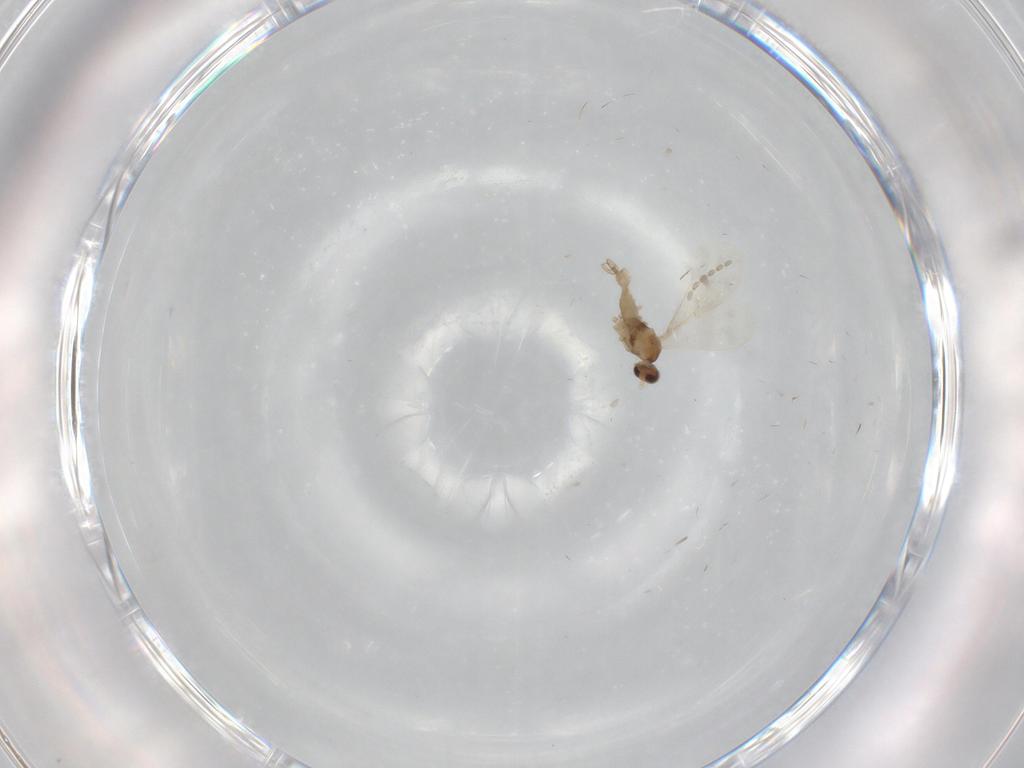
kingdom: Animalia
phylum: Arthropoda
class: Insecta
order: Diptera
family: Cecidomyiidae
